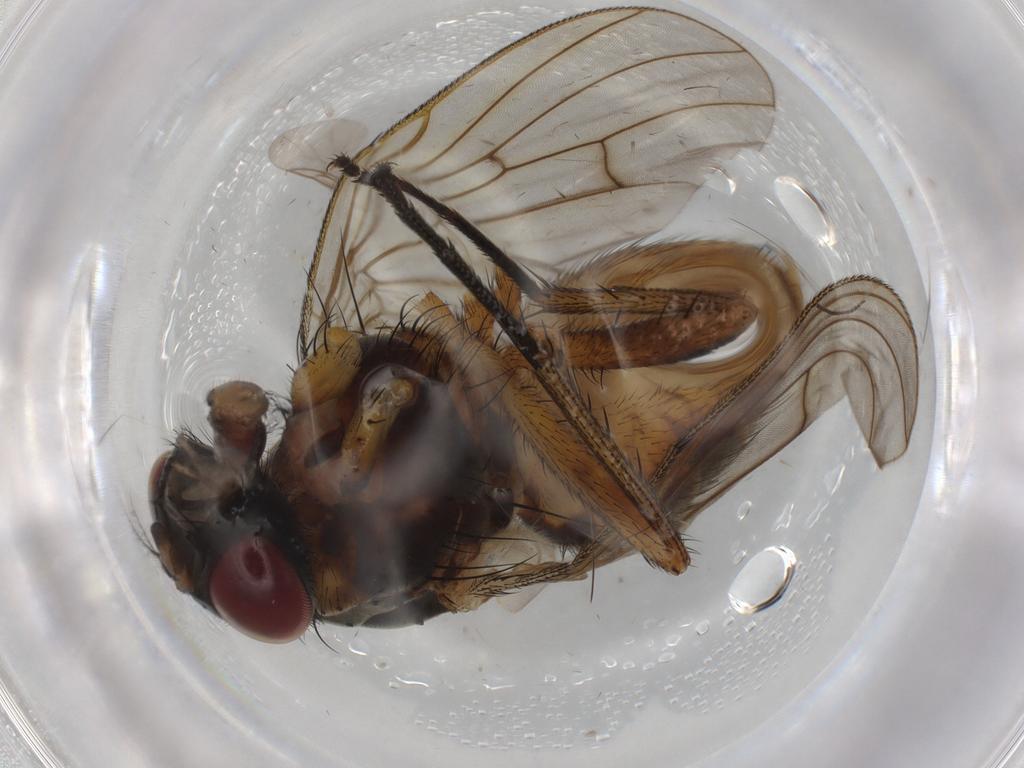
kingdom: Animalia
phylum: Arthropoda
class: Insecta
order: Diptera
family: Muscidae
